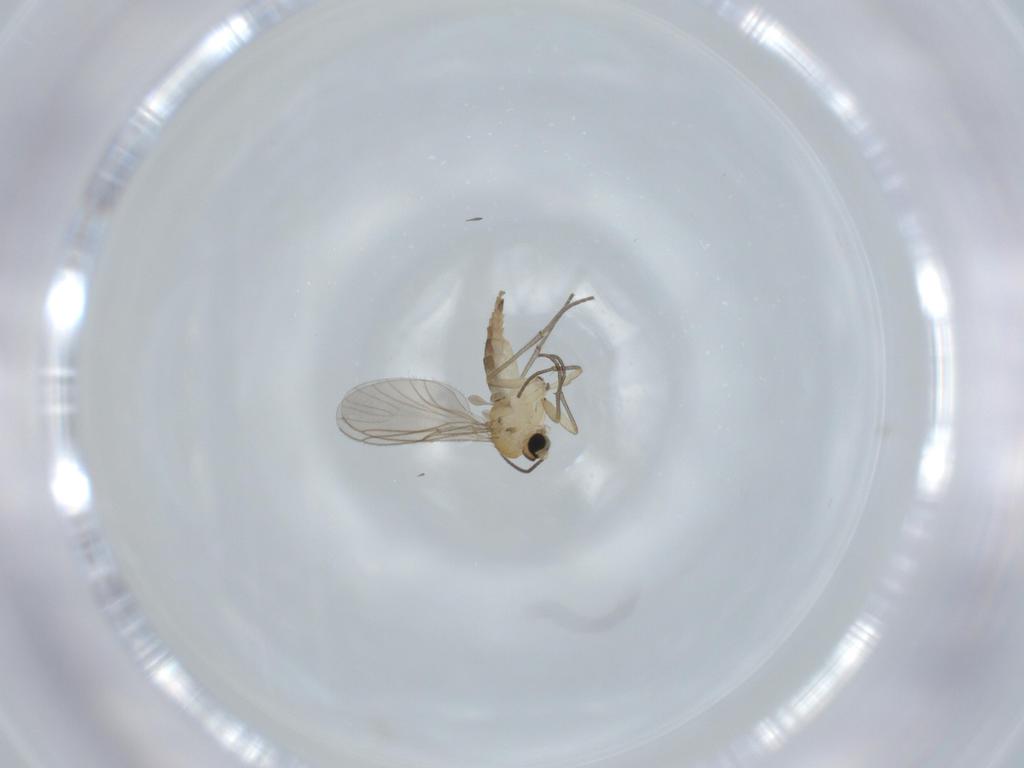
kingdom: Animalia
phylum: Arthropoda
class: Insecta
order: Diptera
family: Sciaridae
